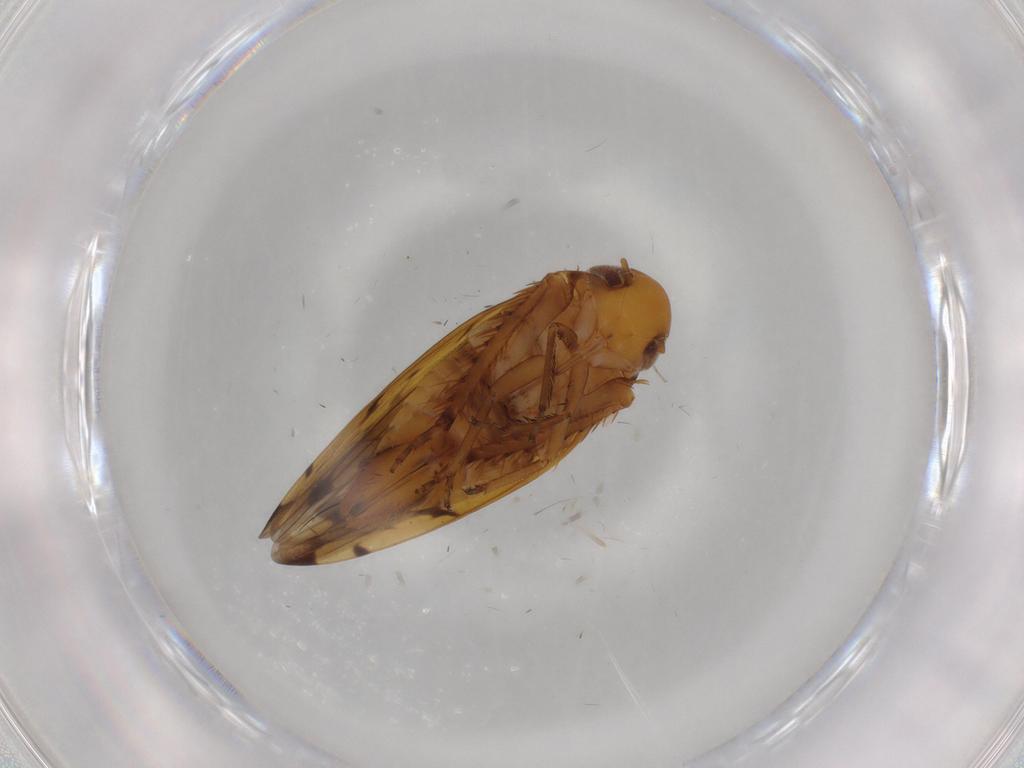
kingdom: Animalia
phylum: Arthropoda
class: Insecta
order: Hemiptera
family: Cicadellidae
